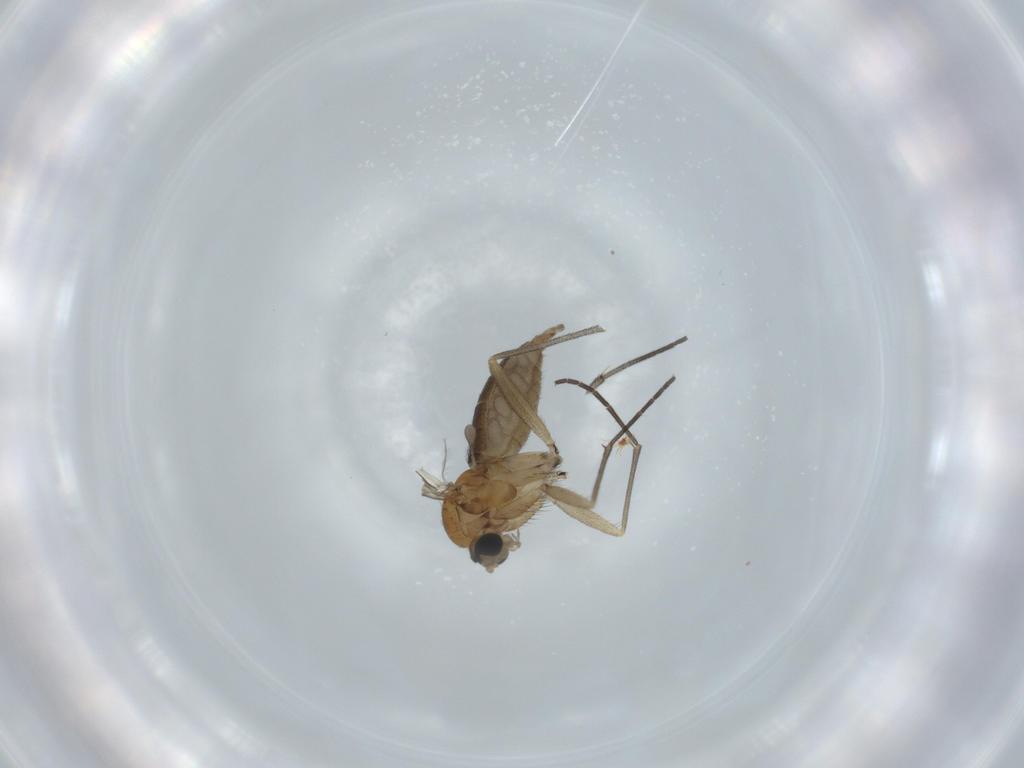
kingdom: Animalia
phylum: Arthropoda
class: Insecta
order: Diptera
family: Sciaridae
